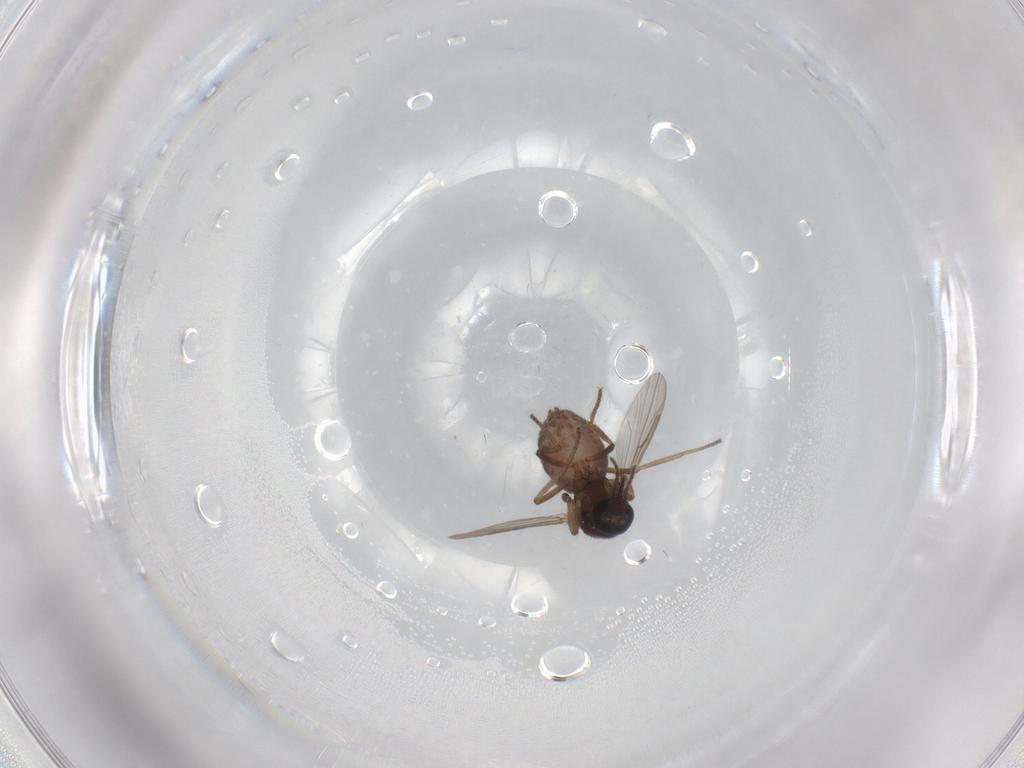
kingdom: Animalia
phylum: Arthropoda
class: Insecta
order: Diptera
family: Ceratopogonidae
